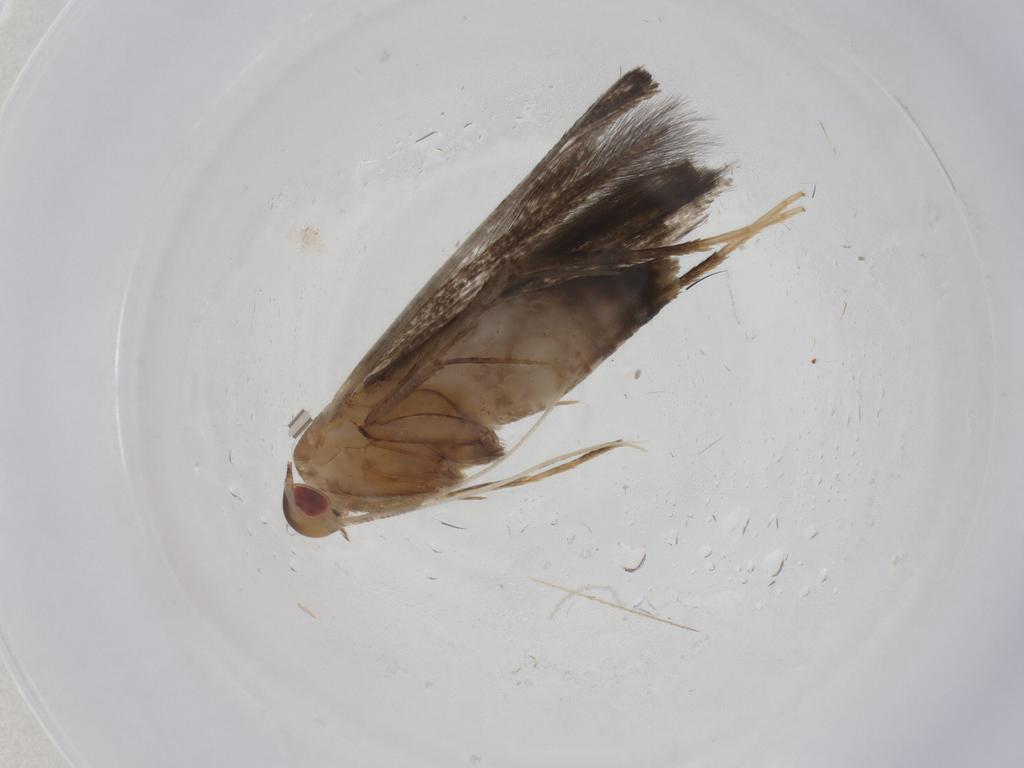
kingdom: Animalia
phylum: Arthropoda
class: Insecta
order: Lepidoptera
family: Cosmopterigidae
